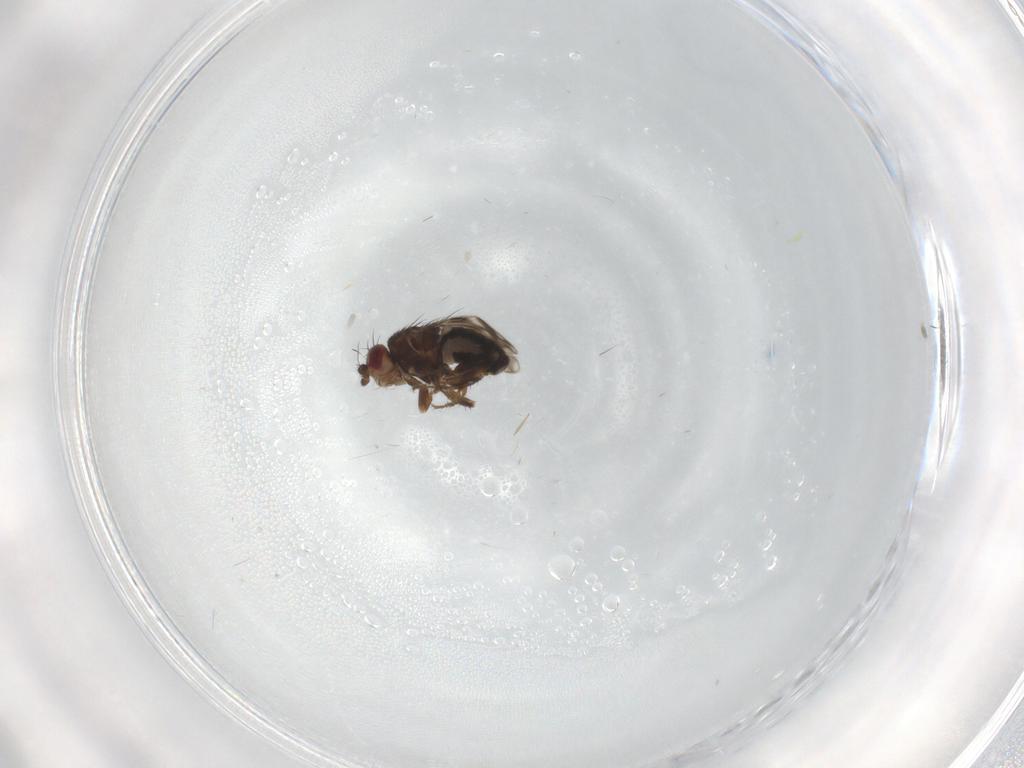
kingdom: Animalia
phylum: Arthropoda
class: Insecta
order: Diptera
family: Sphaeroceridae
